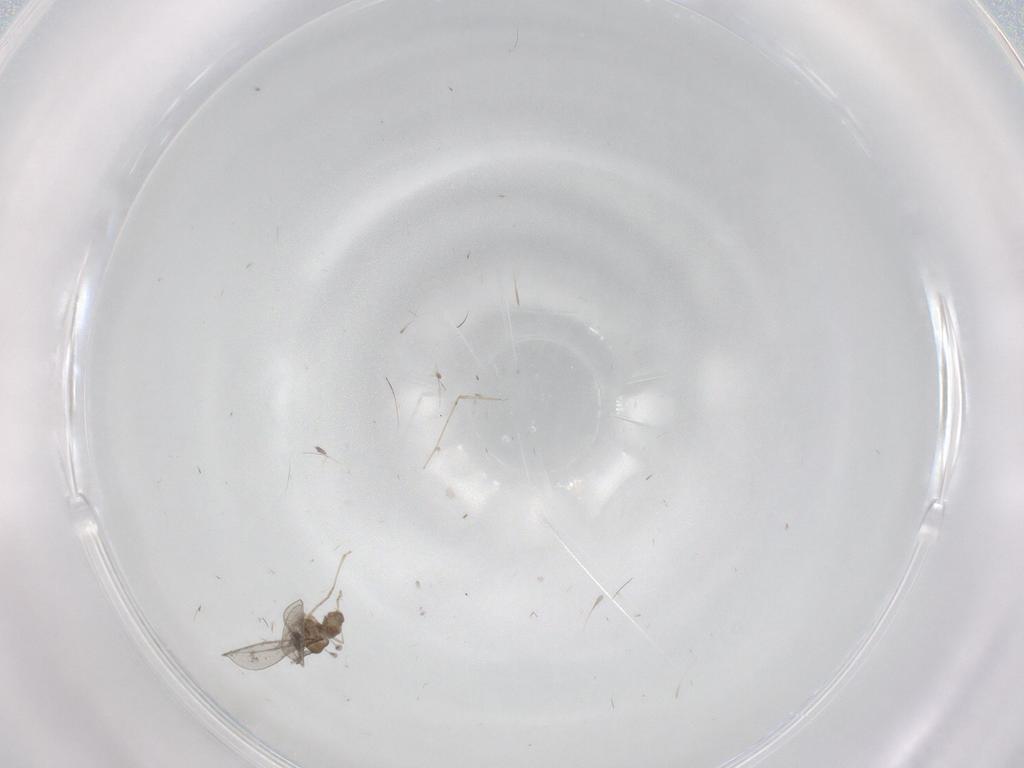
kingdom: Animalia
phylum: Arthropoda
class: Insecta
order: Diptera
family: Cecidomyiidae
